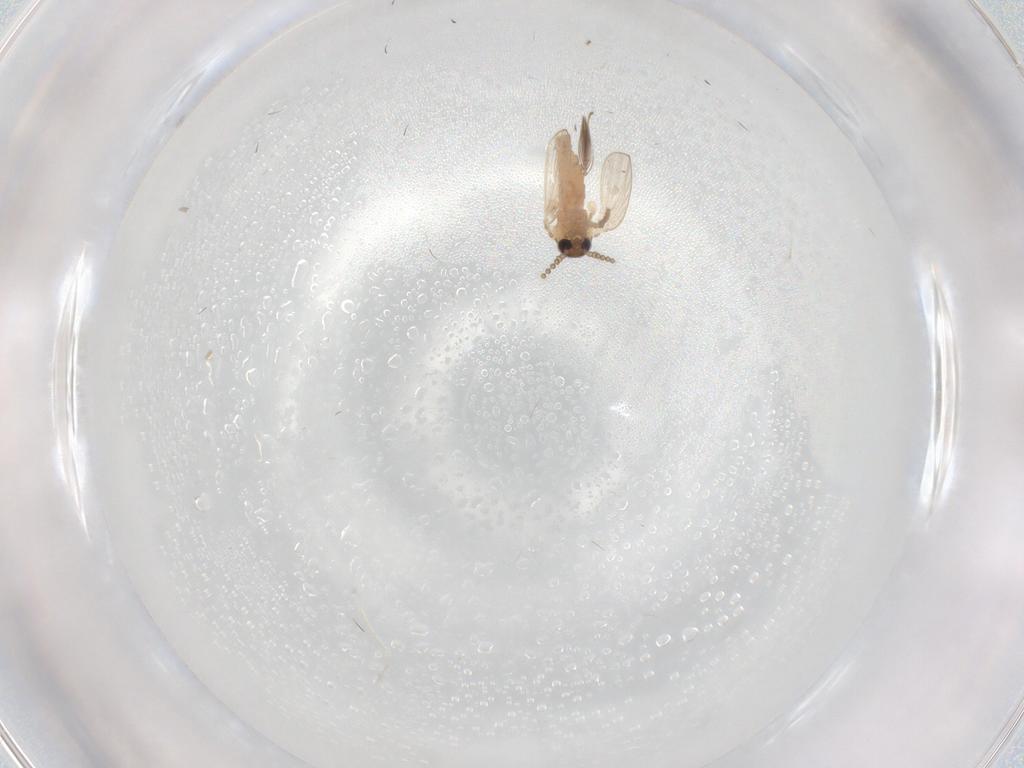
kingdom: Animalia
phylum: Arthropoda
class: Insecta
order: Diptera
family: Psychodidae
